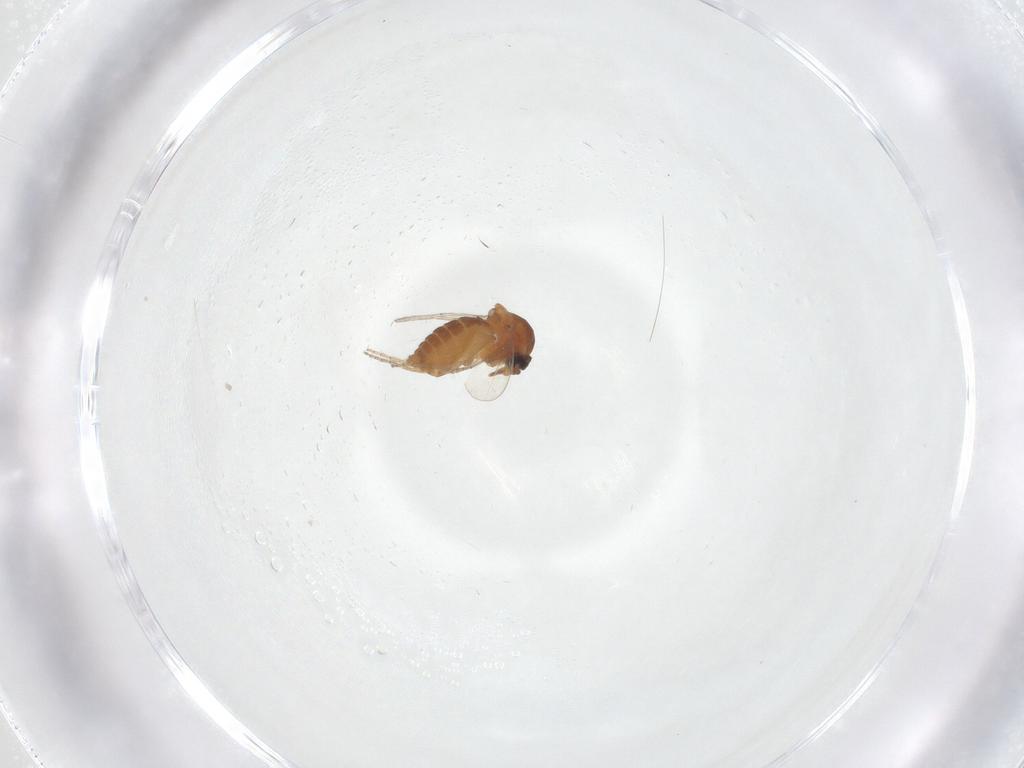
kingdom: Animalia
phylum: Arthropoda
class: Insecta
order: Diptera
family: Ceratopogonidae
